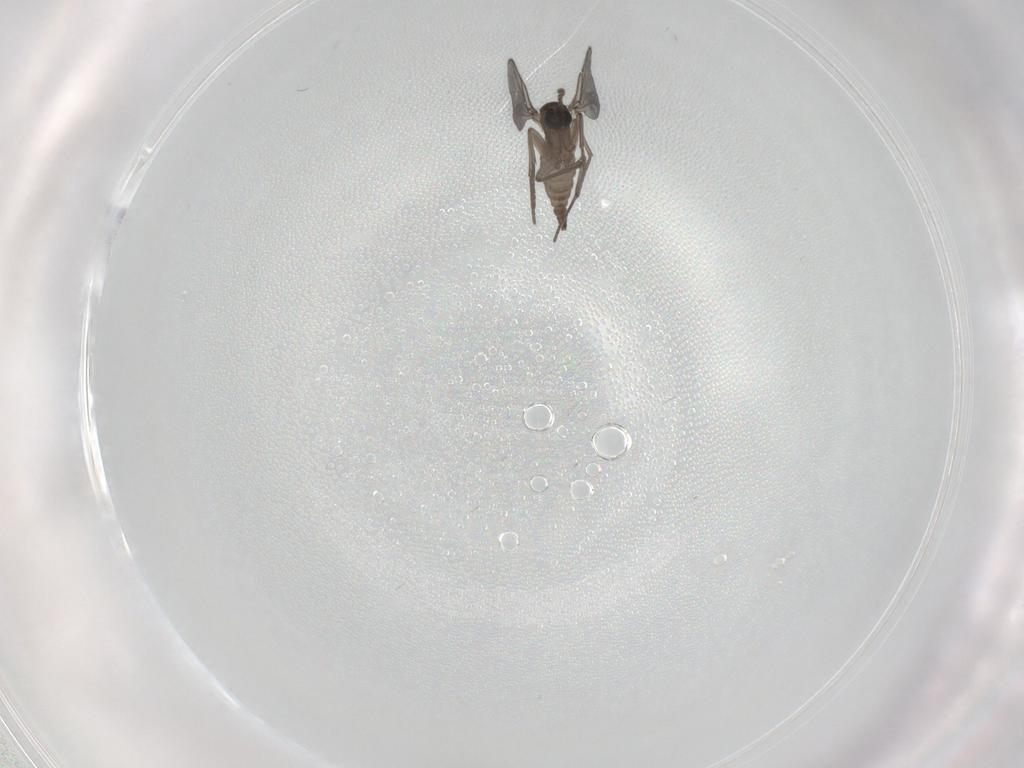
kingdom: Animalia
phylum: Arthropoda
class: Insecta
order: Diptera
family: Sciaridae
